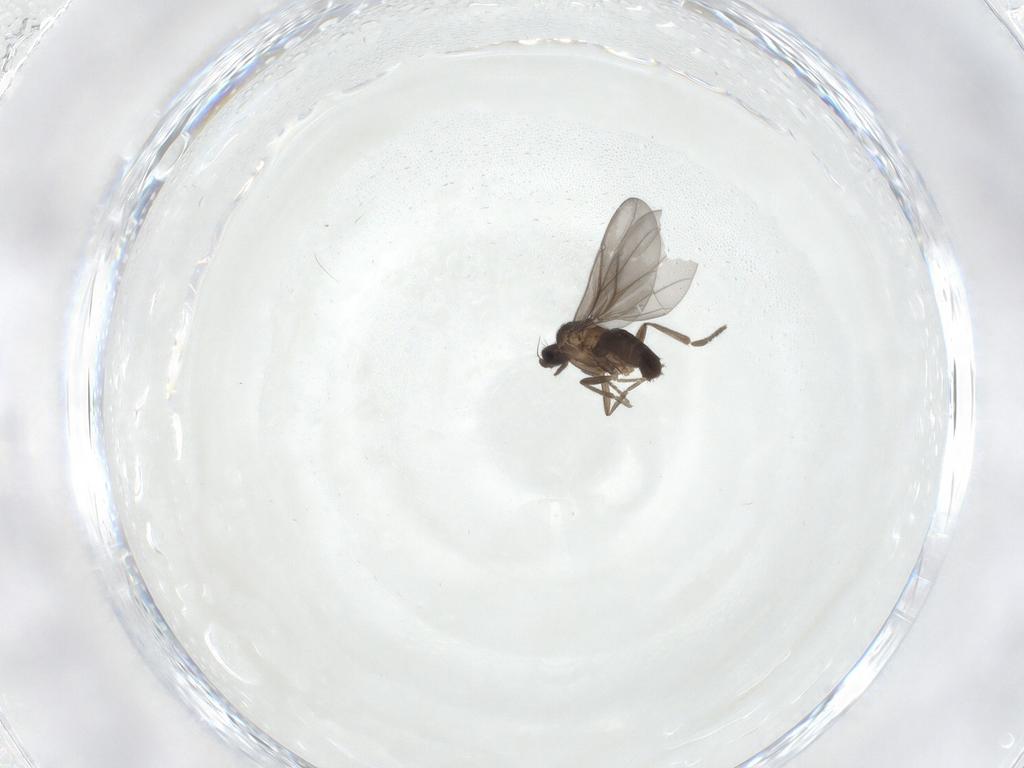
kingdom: Animalia
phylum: Arthropoda
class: Insecta
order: Diptera
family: Phoridae
